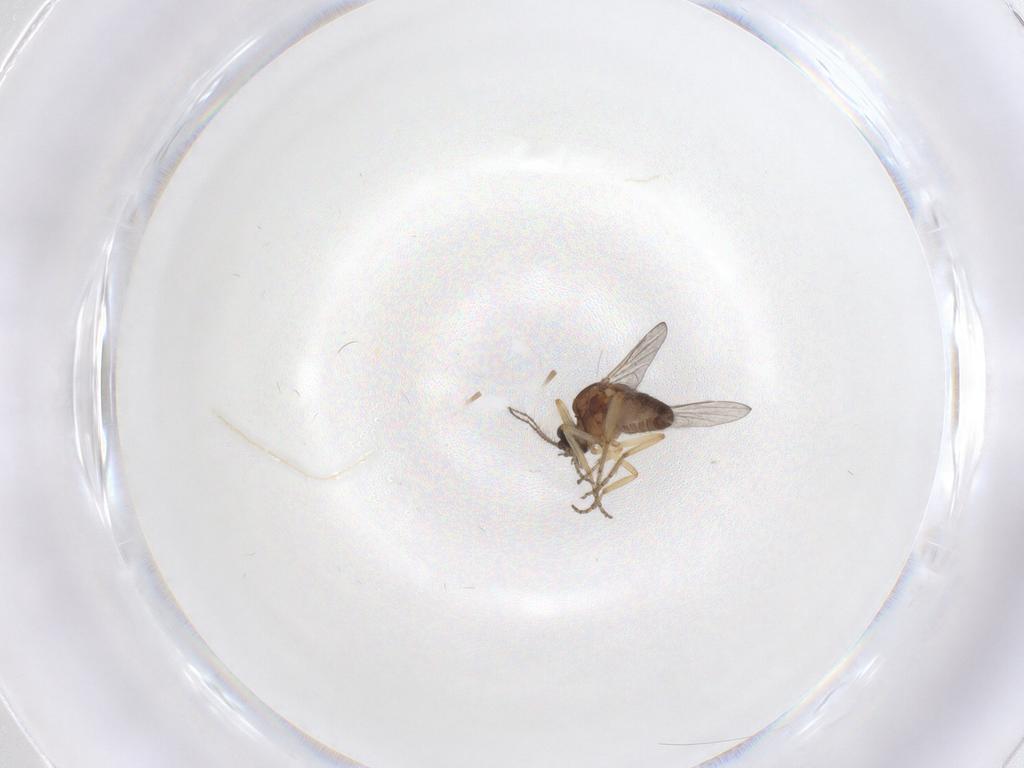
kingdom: Animalia
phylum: Arthropoda
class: Insecta
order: Diptera
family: Ceratopogonidae
